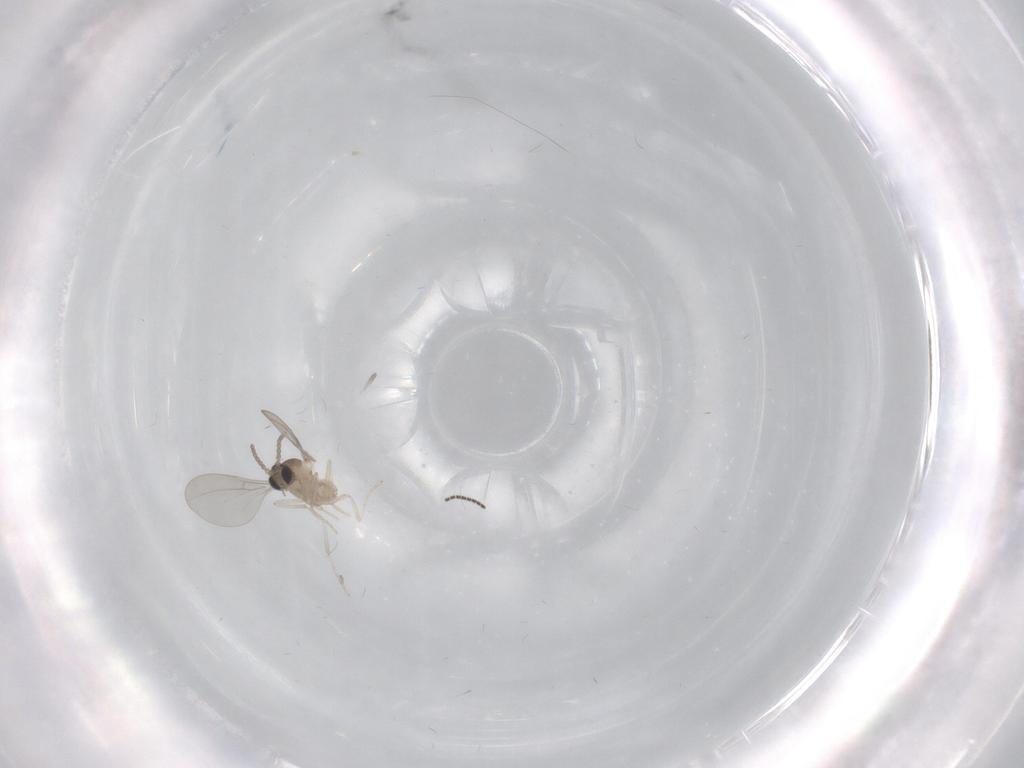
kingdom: Animalia
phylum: Arthropoda
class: Insecta
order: Diptera
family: Cecidomyiidae
